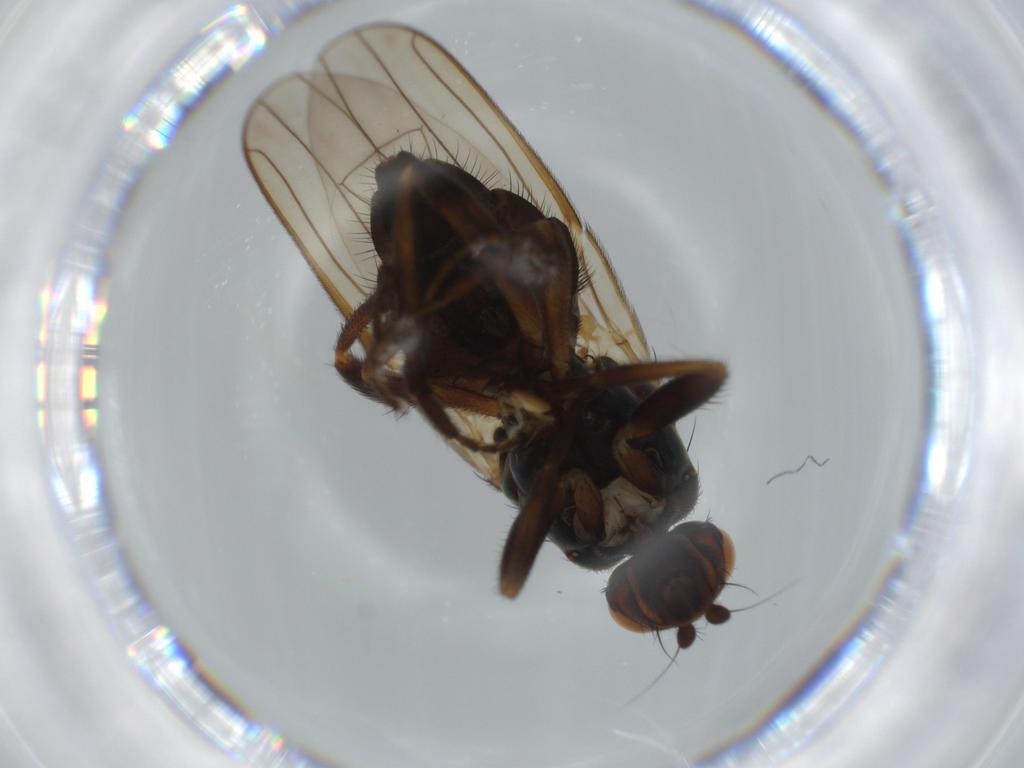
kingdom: Animalia
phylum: Arthropoda
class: Insecta
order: Diptera
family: Sphaeroceridae
